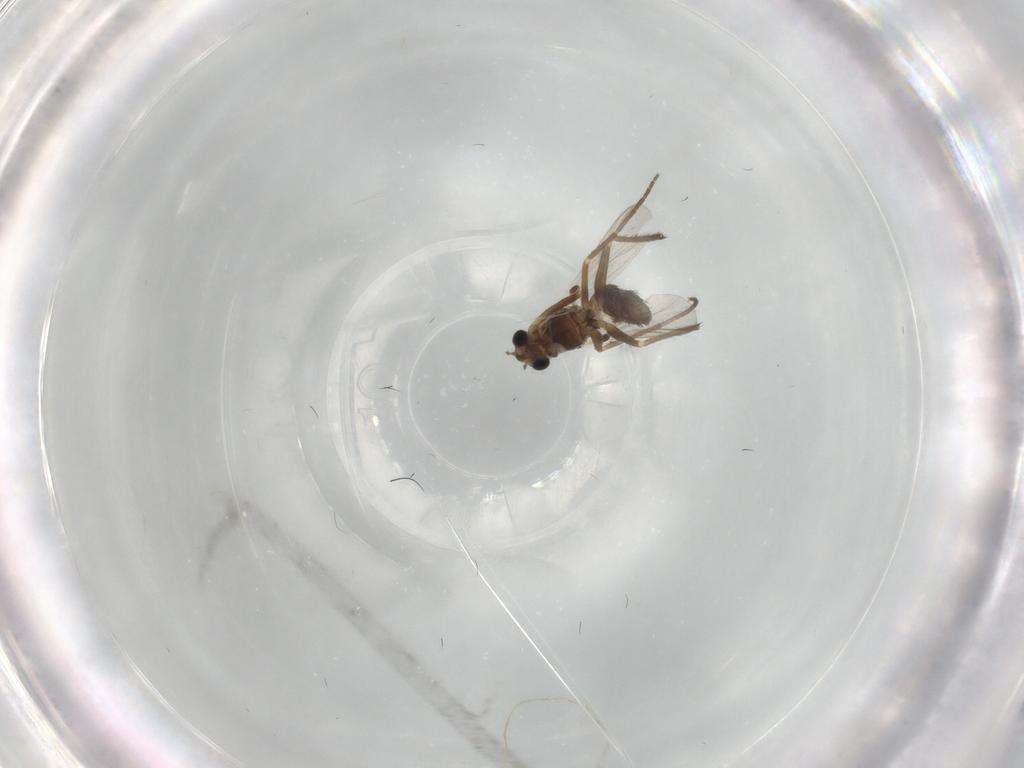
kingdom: Animalia
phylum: Arthropoda
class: Insecta
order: Diptera
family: Chironomidae
